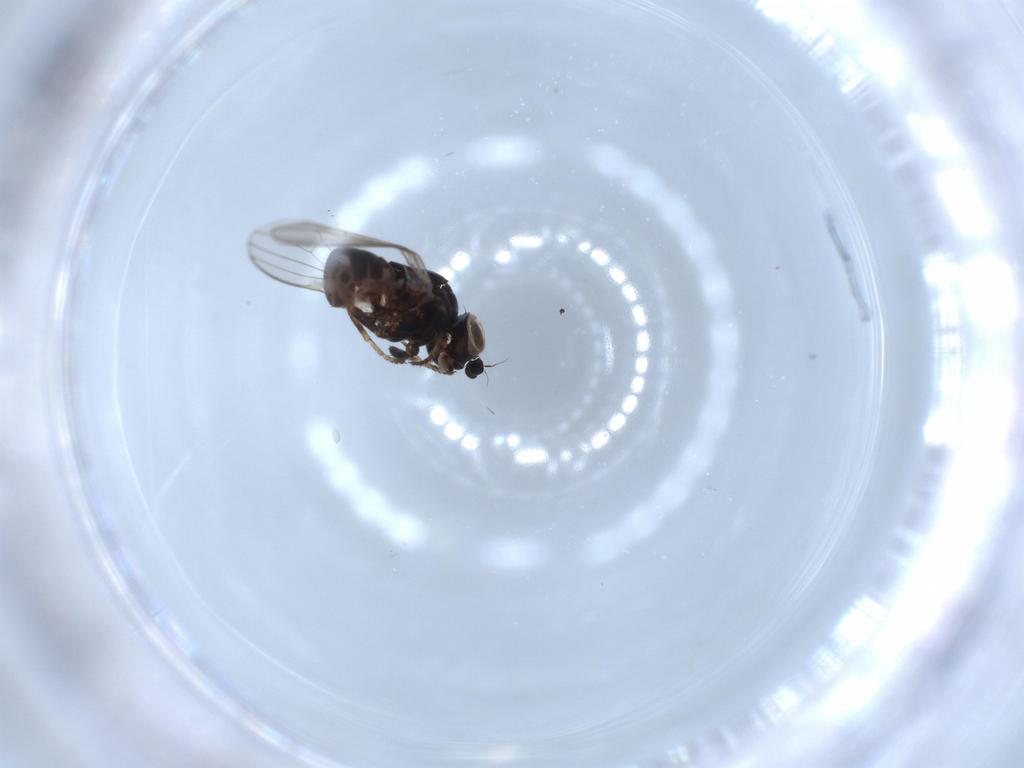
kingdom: Animalia
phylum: Arthropoda
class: Insecta
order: Diptera
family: Chamaemyiidae
